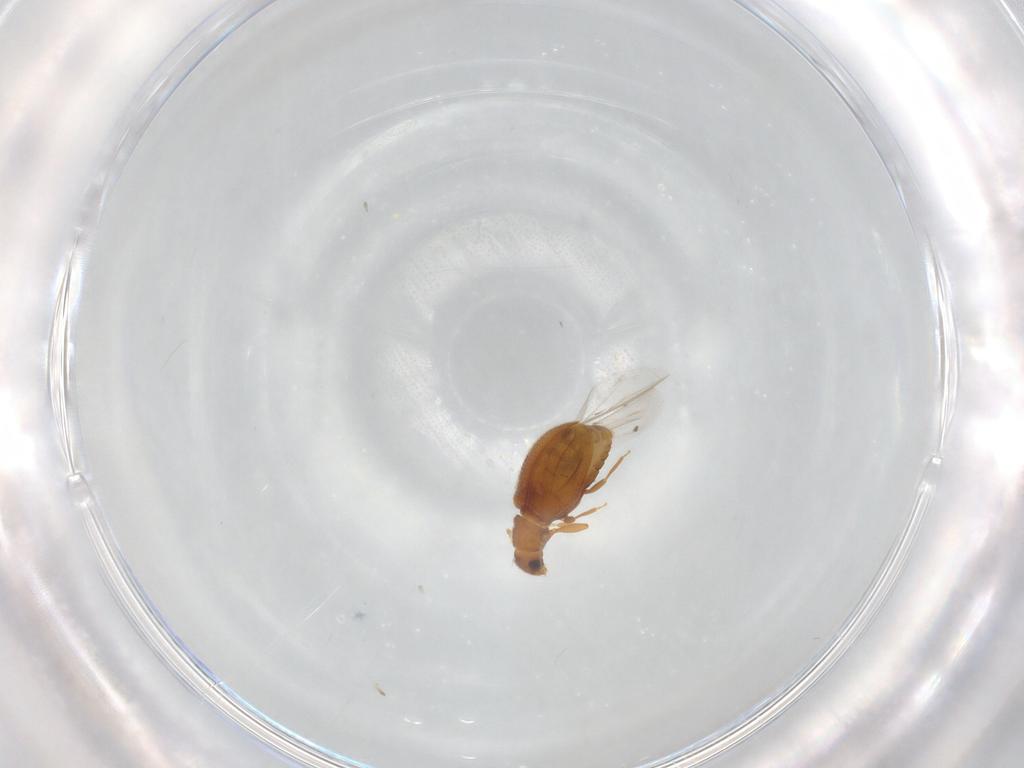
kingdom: Animalia
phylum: Arthropoda
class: Insecta
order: Coleoptera
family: Latridiidae
